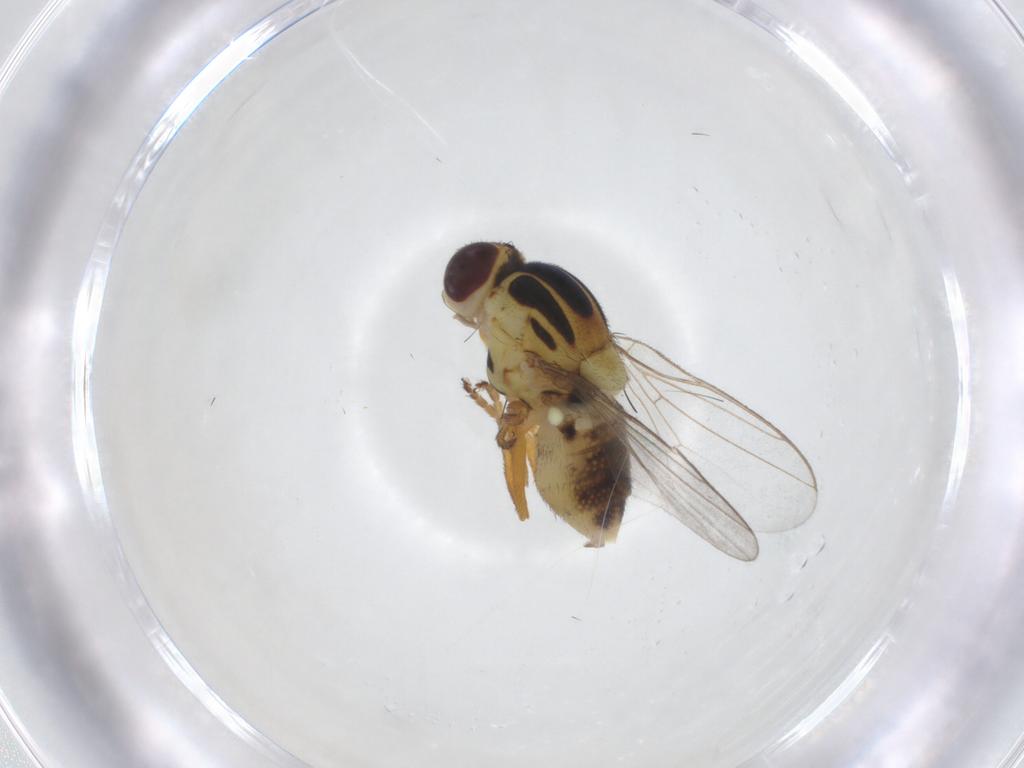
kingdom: Animalia
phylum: Arthropoda
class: Insecta
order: Diptera
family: Chloropidae
